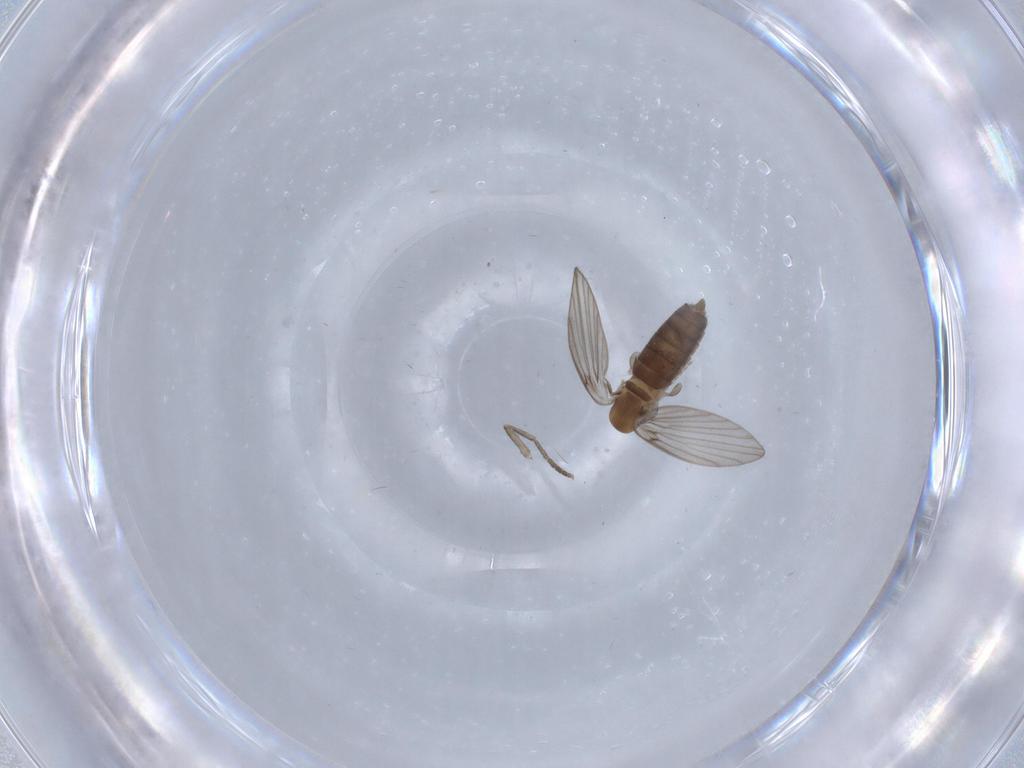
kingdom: Animalia
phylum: Arthropoda
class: Insecta
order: Diptera
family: Psychodidae
